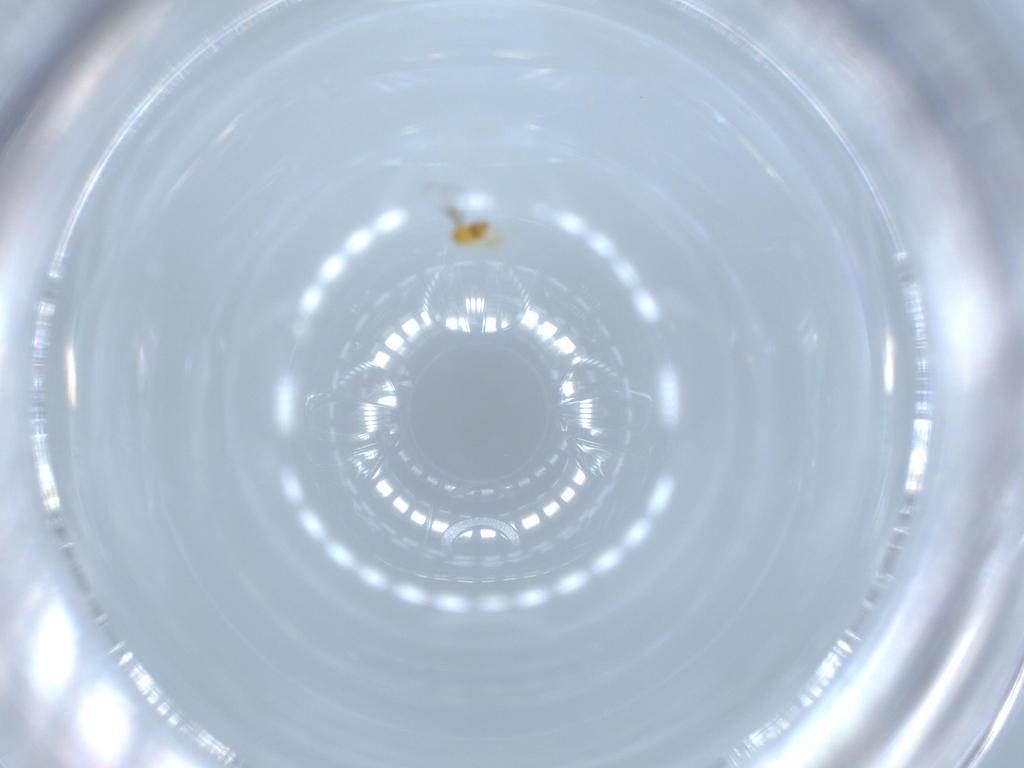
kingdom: Animalia
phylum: Arthropoda
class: Insecta
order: Hymenoptera
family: Trichogrammatidae
